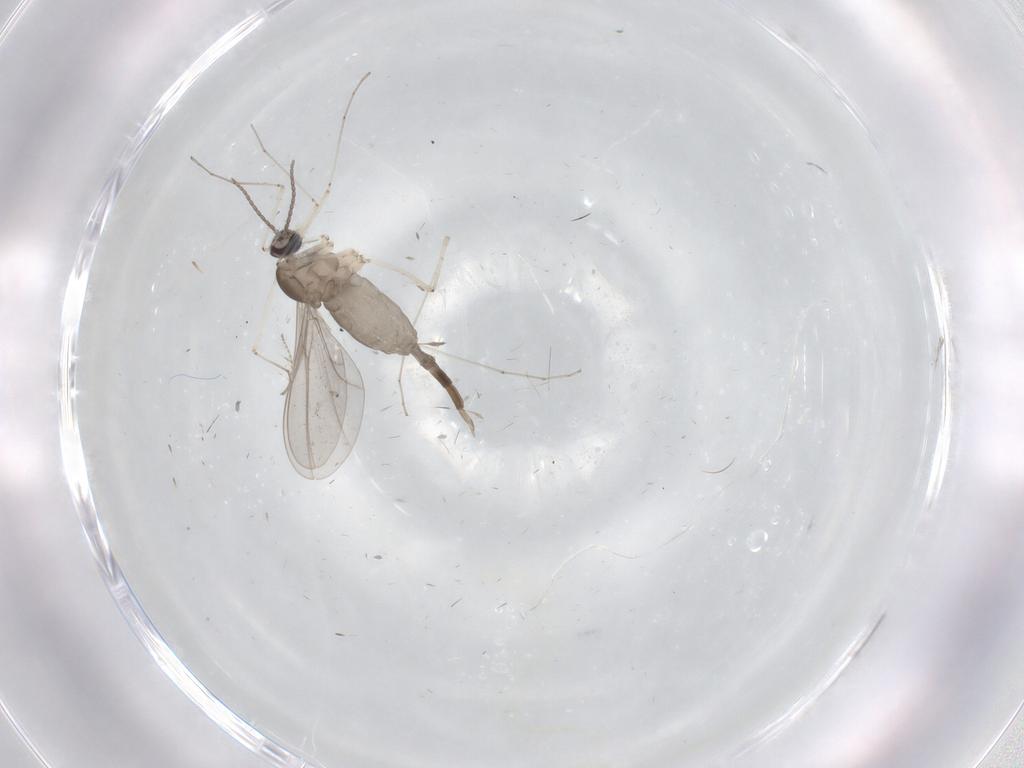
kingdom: Animalia
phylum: Arthropoda
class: Insecta
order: Diptera
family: Cecidomyiidae
